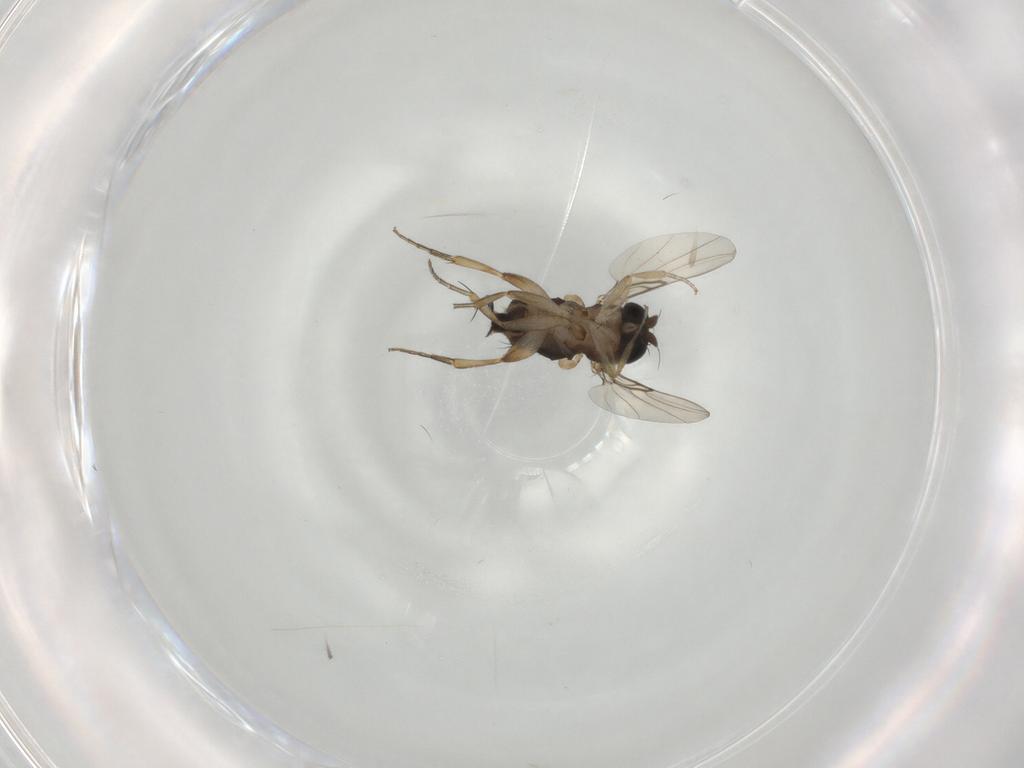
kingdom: Animalia
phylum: Arthropoda
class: Insecta
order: Diptera
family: Phoridae
